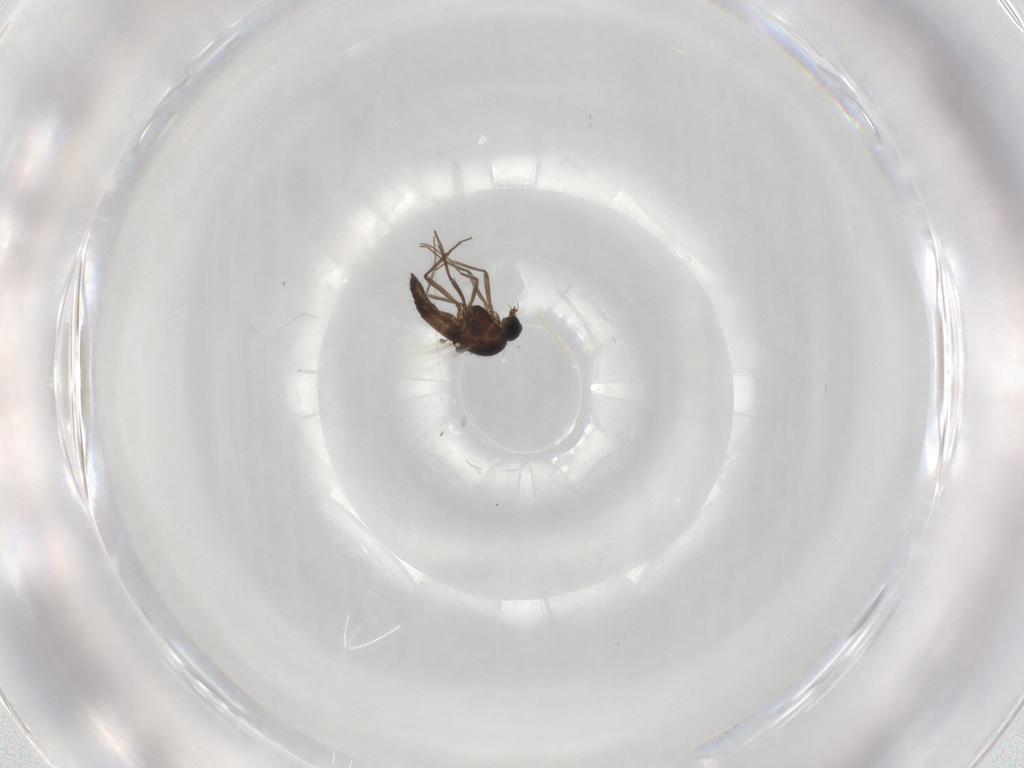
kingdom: Animalia
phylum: Arthropoda
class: Insecta
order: Diptera
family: Ceratopogonidae
